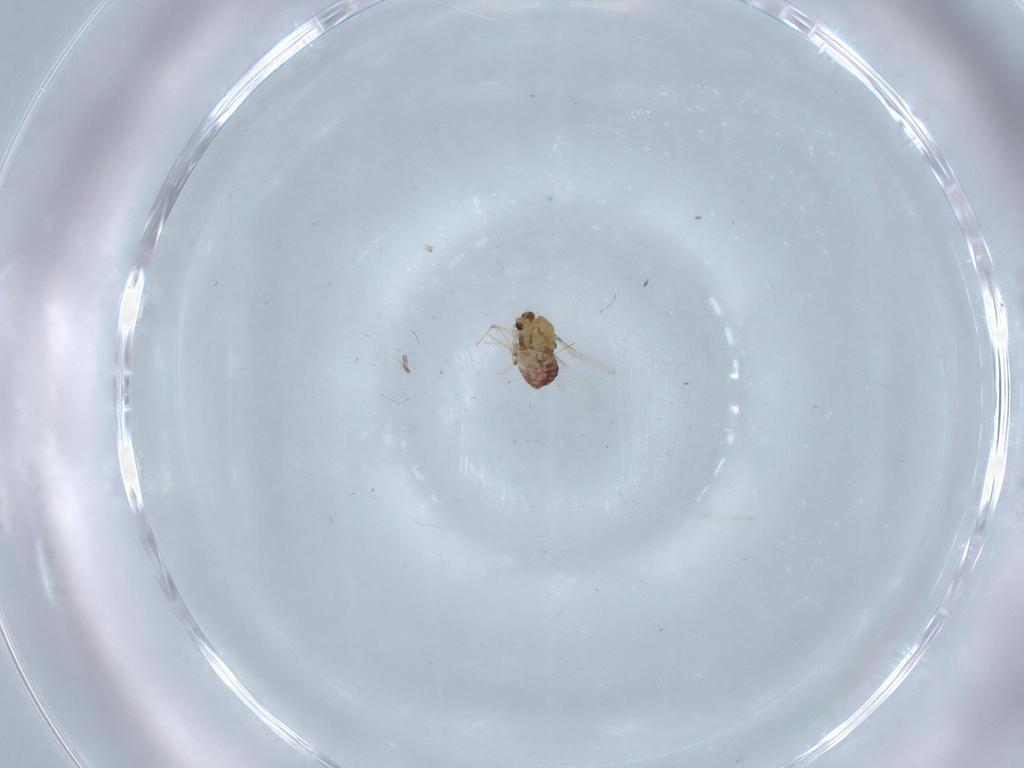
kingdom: Animalia
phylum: Arthropoda
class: Insecta
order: Diptera
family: Chironomidae
